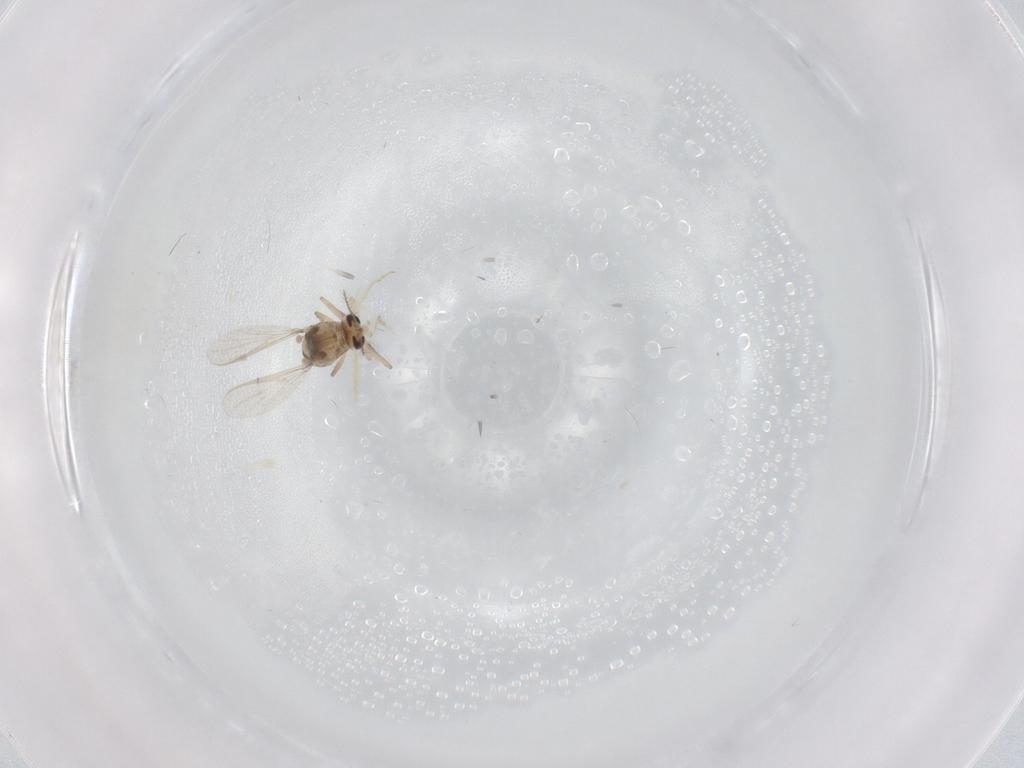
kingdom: Animalia
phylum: Arthropoda
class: Insecta
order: Diptera
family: Chironomidae
